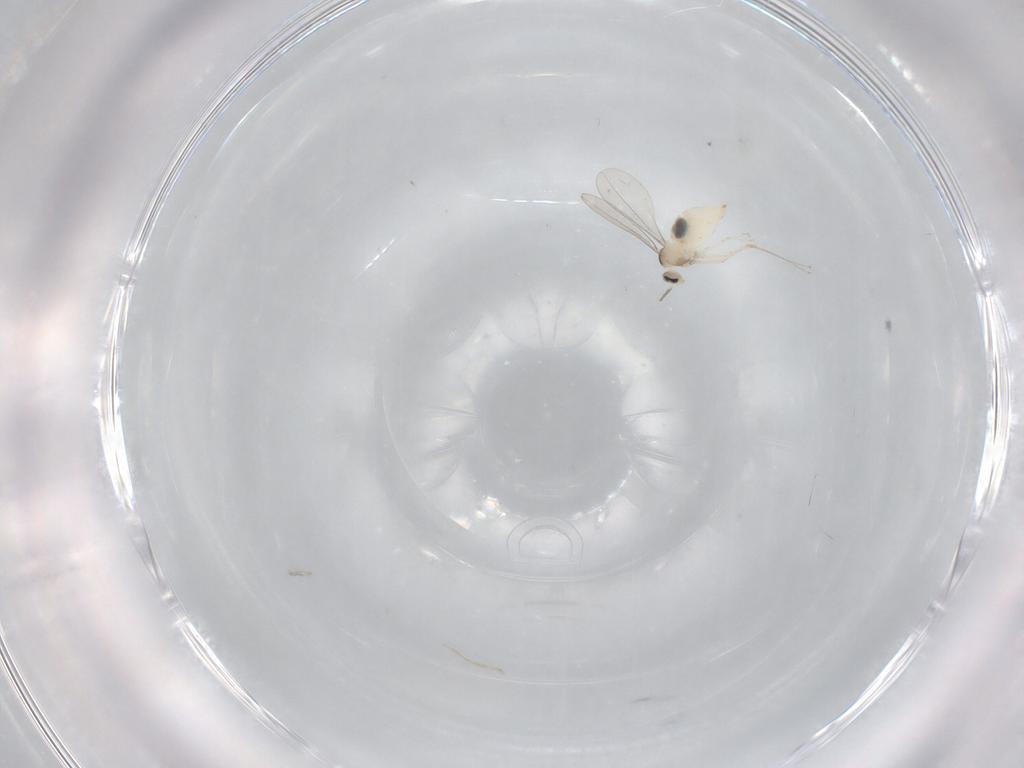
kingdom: Animalia
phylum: Arthropoda
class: Insecta
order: Diptera
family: Cecidomyiidae
